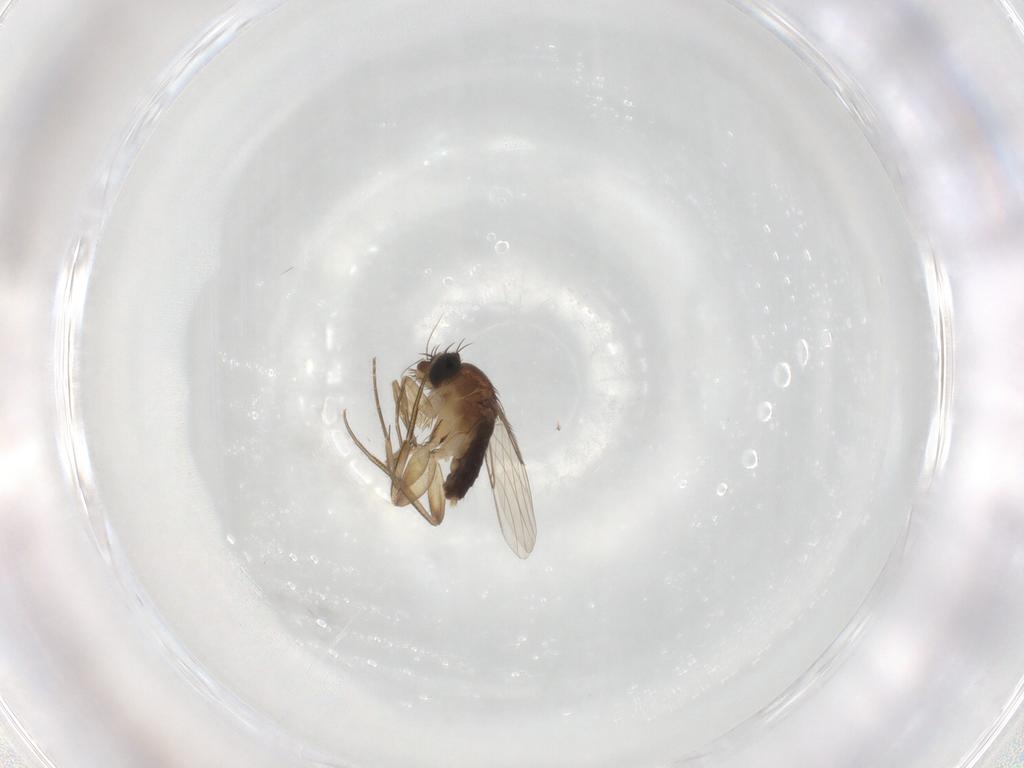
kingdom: Animalia
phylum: Arthropoda
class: Insecta
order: Diptera
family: Phoridae
